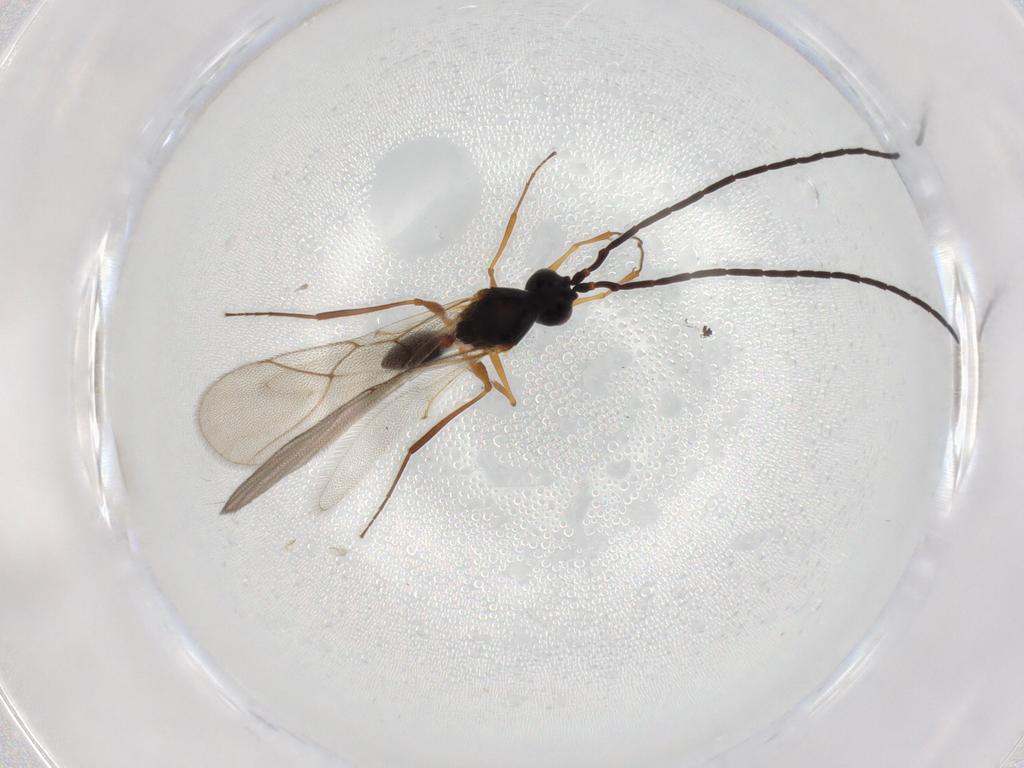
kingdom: Animalia
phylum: Arthropoda
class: Insecta
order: Hymenoptera
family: Figitidae
